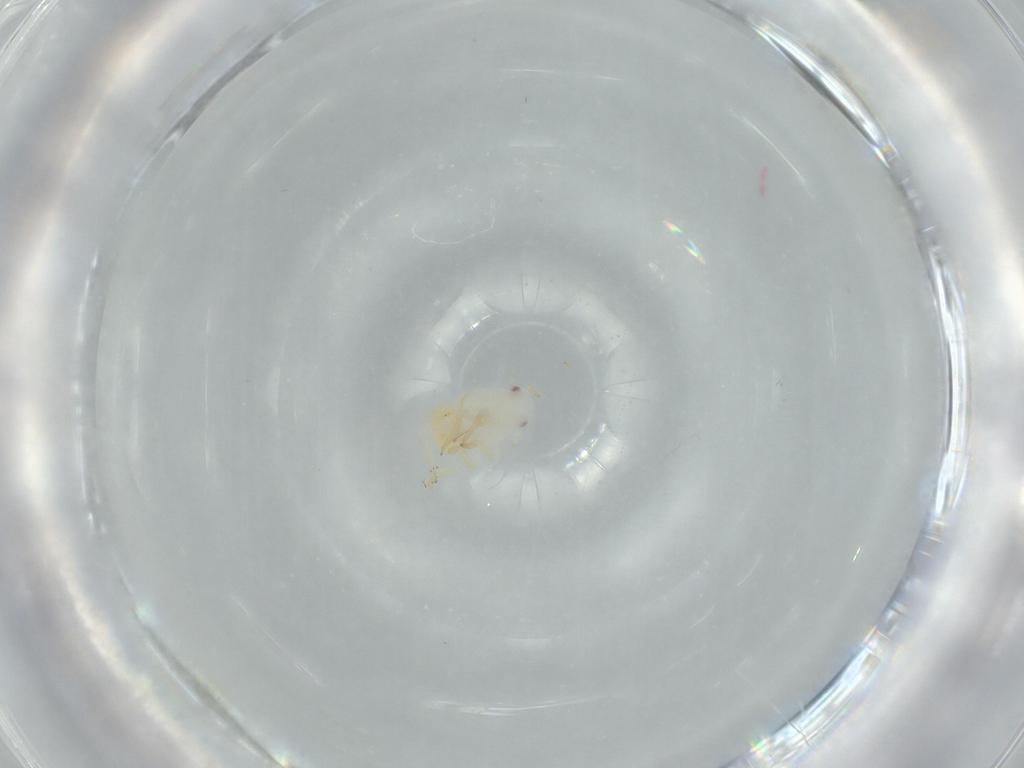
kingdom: Animalia
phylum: Arthropoda
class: Insecta
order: Hemiptera
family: Flatidae
